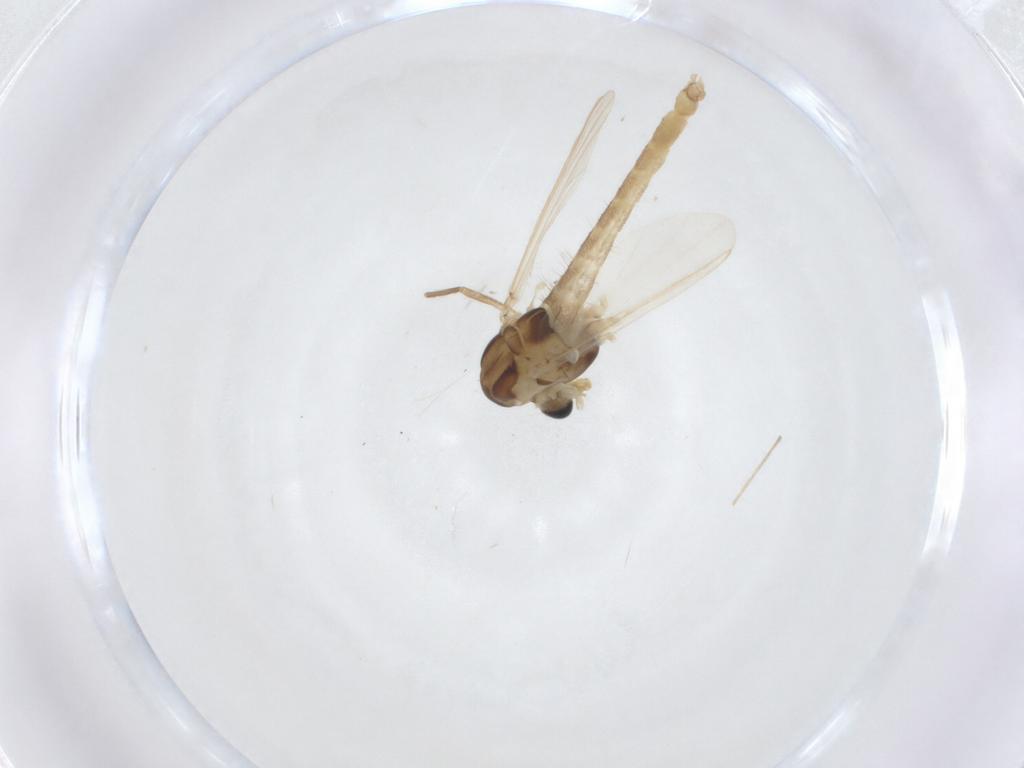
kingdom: Animalia
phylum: Arthropoda
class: Insecta
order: Diptera
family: Chironomidae
